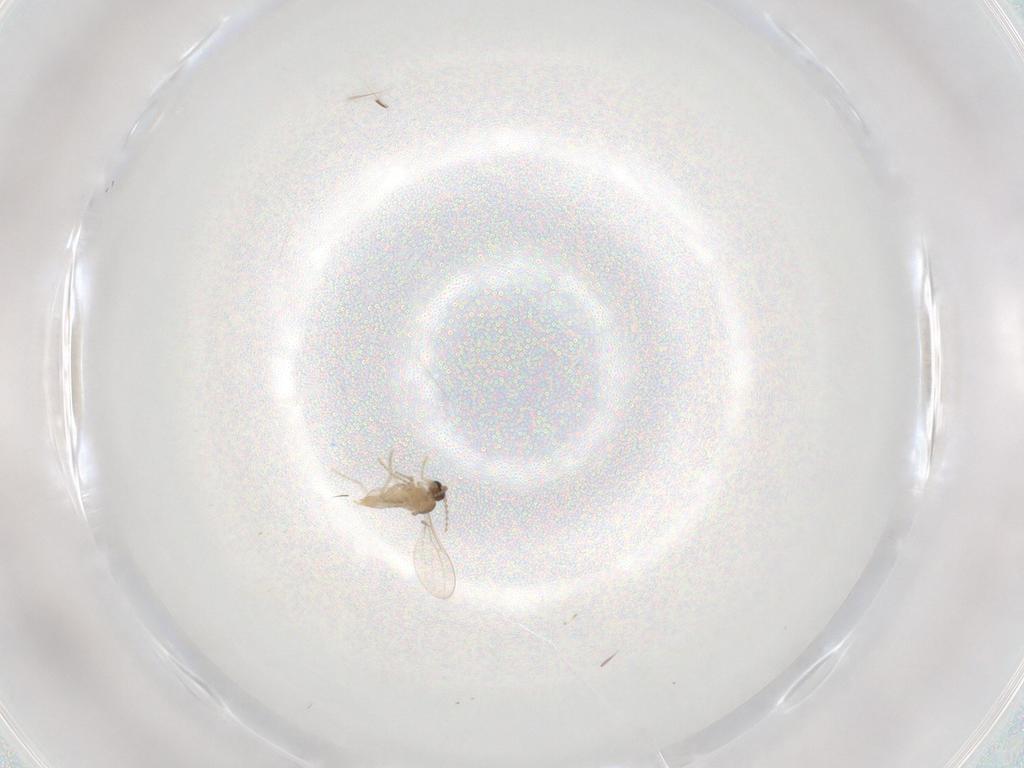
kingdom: Animalia
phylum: Arthropoda
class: Insecta
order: Diptera
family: Cecidomyiidae
